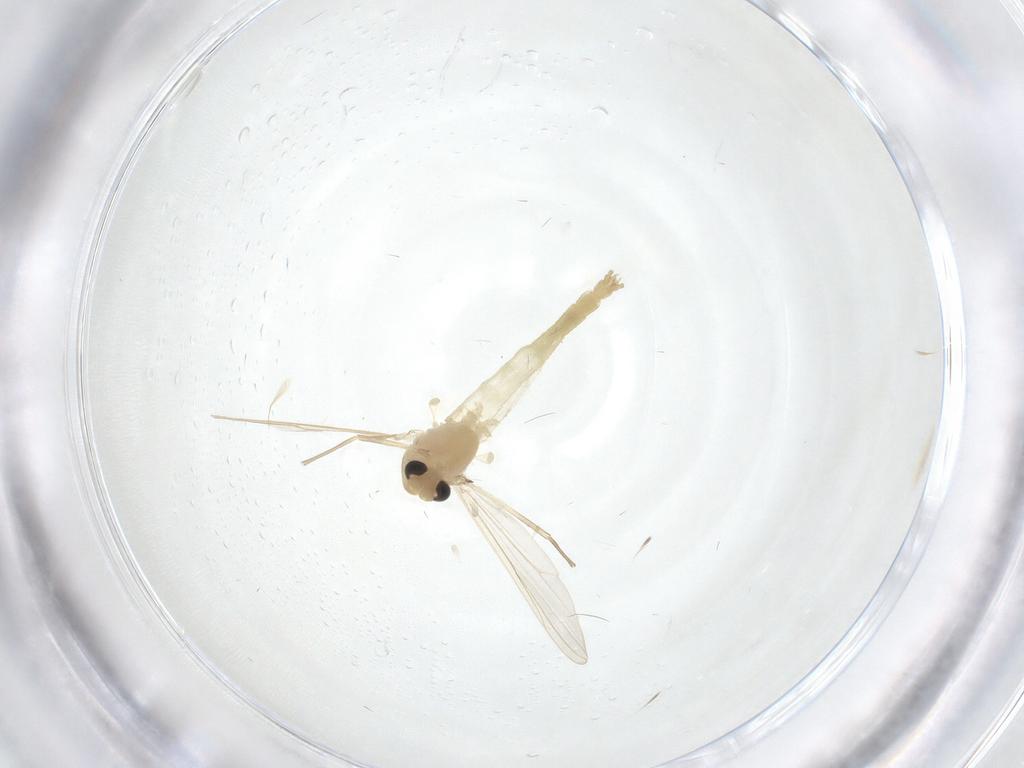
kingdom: Animalia
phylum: Arthropoda
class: Insecta
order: Diptera
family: Chironomidae
